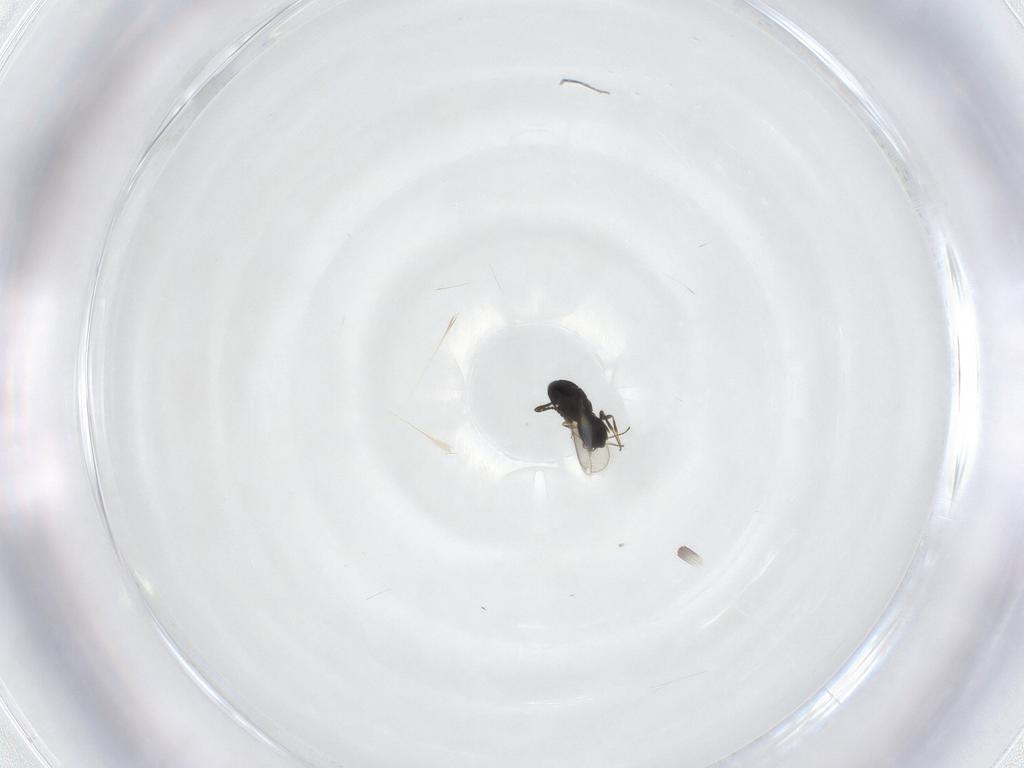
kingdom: Animalia
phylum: Arthropoda
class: Insecta
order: Hymenoptera
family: Scelionidae
